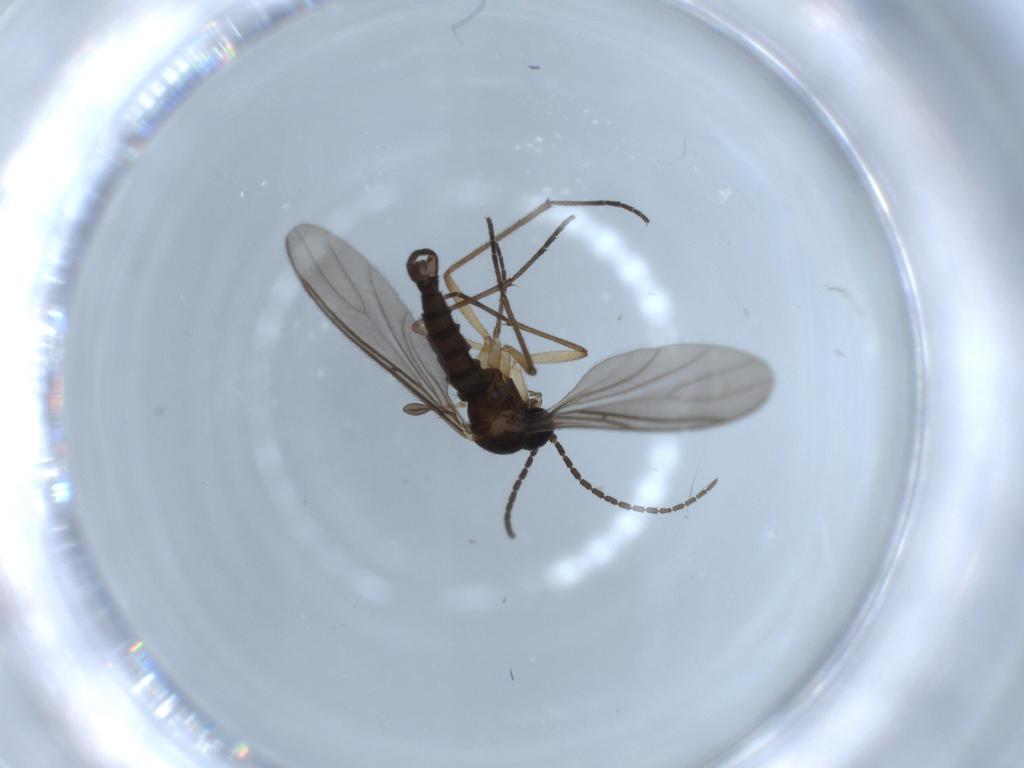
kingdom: Animalia
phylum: Arthropoda
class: Insecta
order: Diptera
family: Sciaridae
